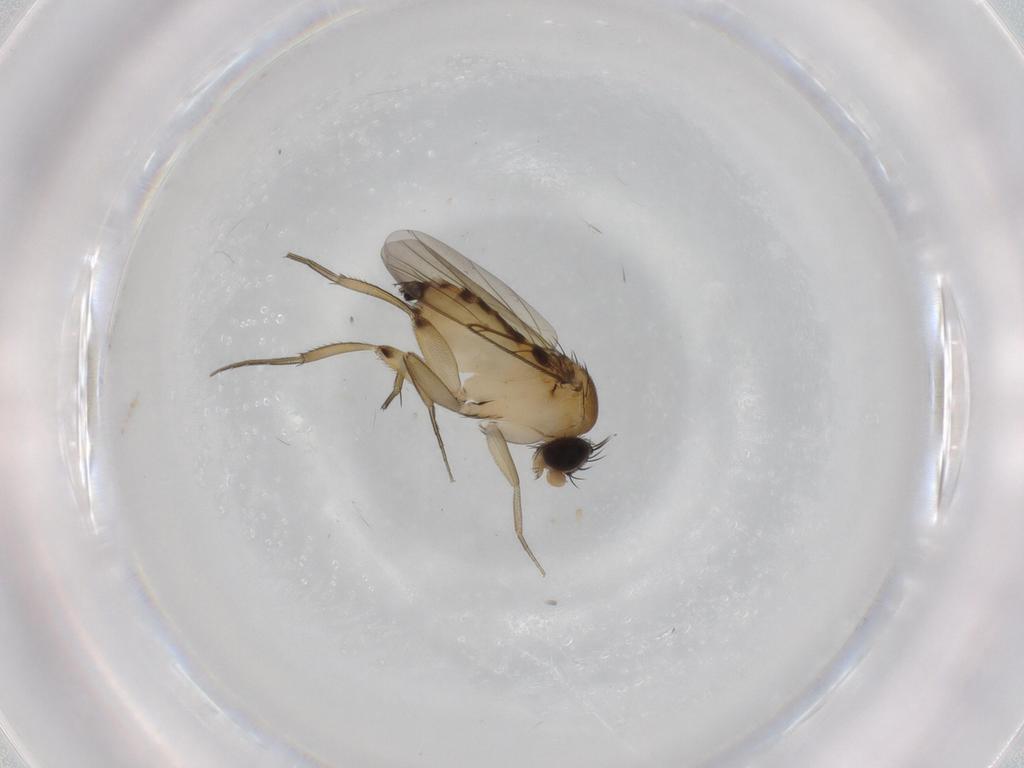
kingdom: Animalia
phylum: Arthropoda
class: Insecta
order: Diptera
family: Phoridae
